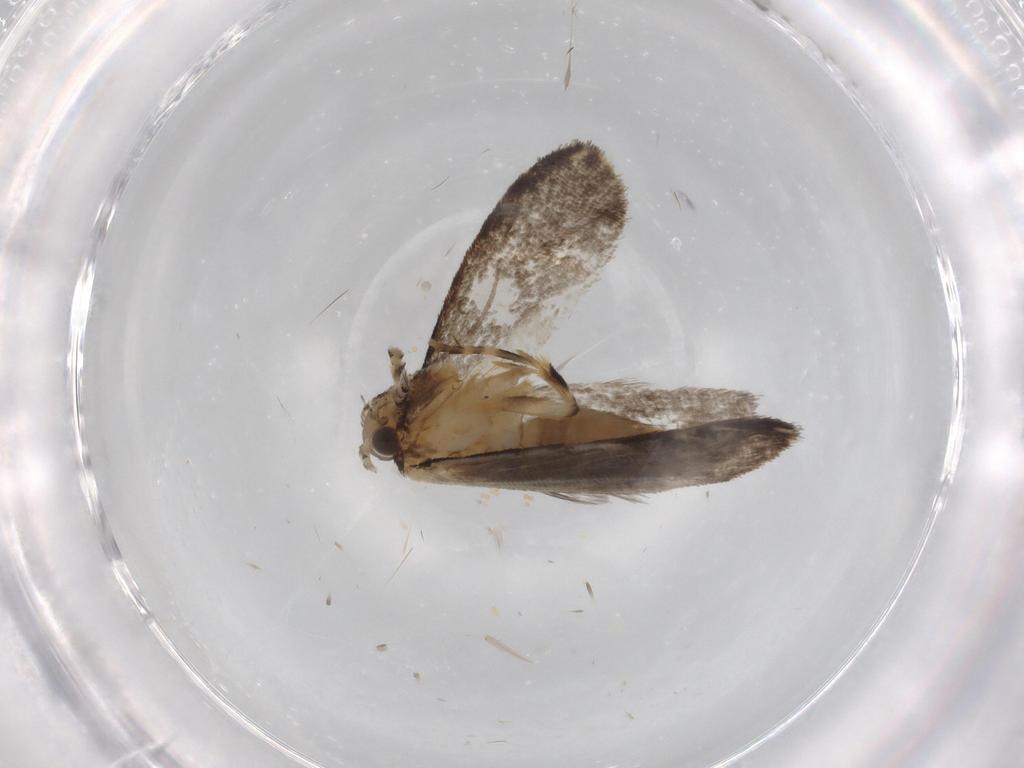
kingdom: Animalia
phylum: Arthropoda
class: Insecta
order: Lepidoptera
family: Dryadaulidae
